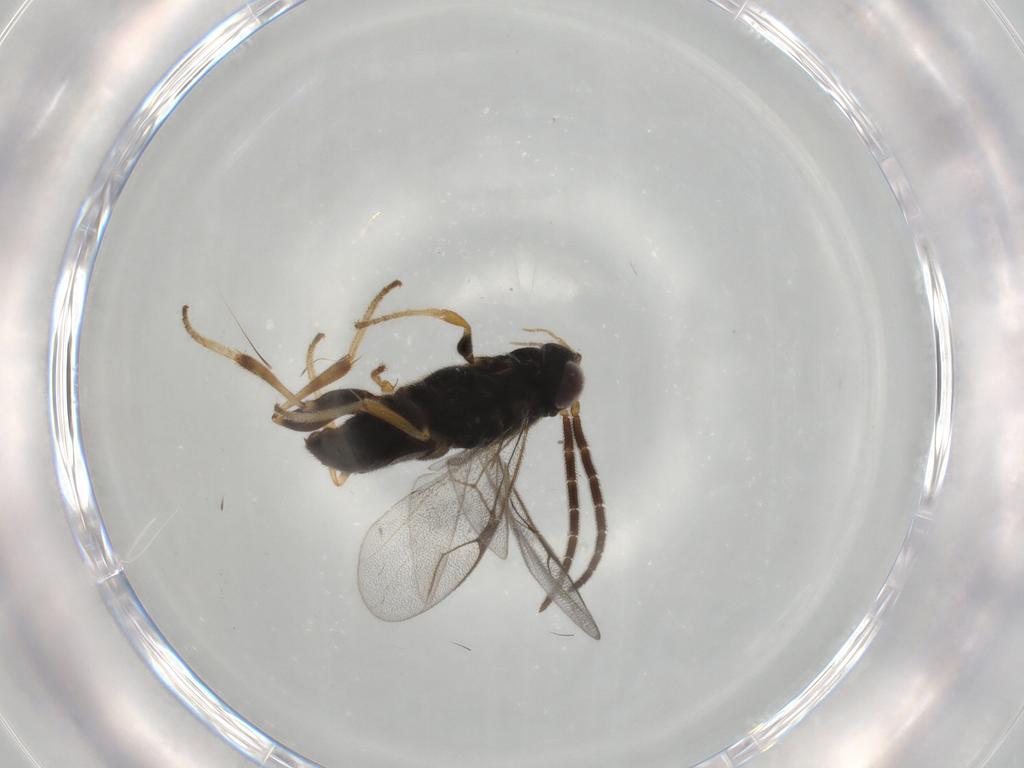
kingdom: Animalia
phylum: Arthropoda
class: Insecta
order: Hymenoptera
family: Dryinidae
